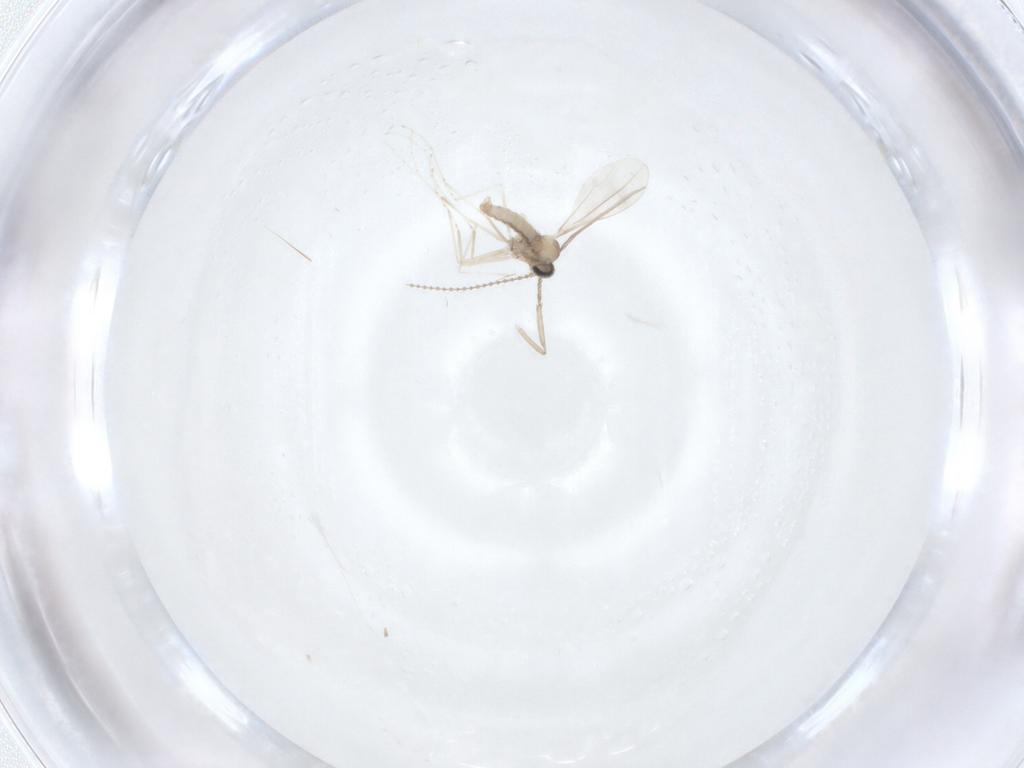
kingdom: Animalia
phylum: Arthropoda
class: Insecta
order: Diptera
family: Cecidomyiidae
